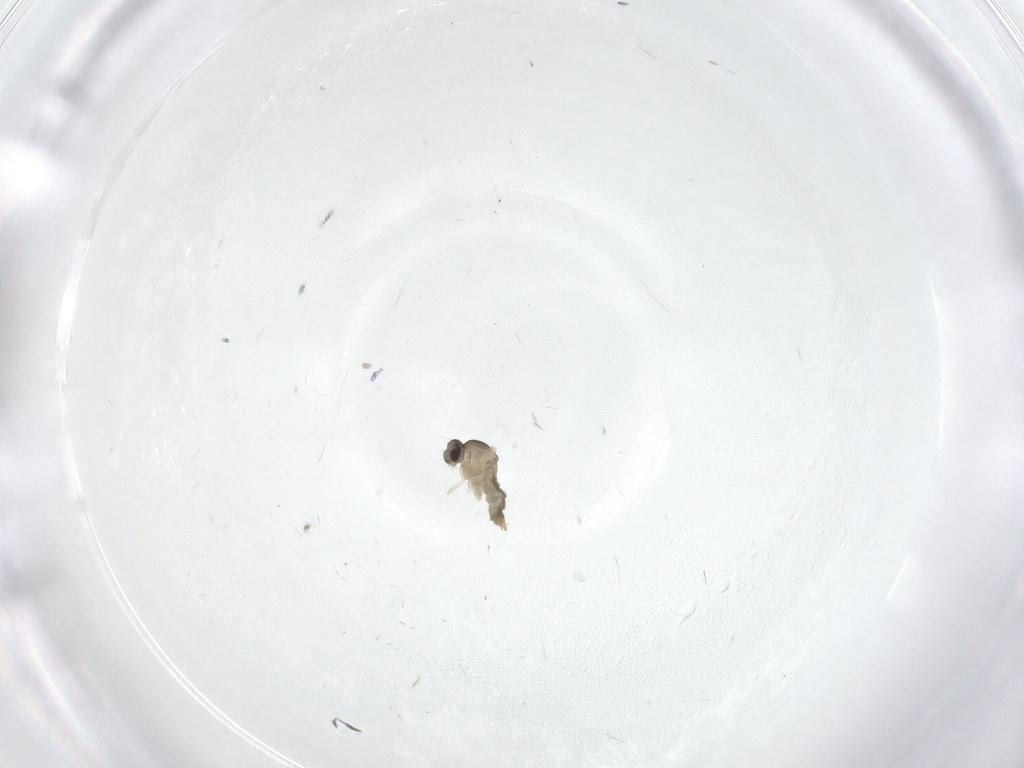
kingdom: Animalia
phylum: Arthropoda
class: Insecta
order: Diptera
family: Cecidomyiidae
